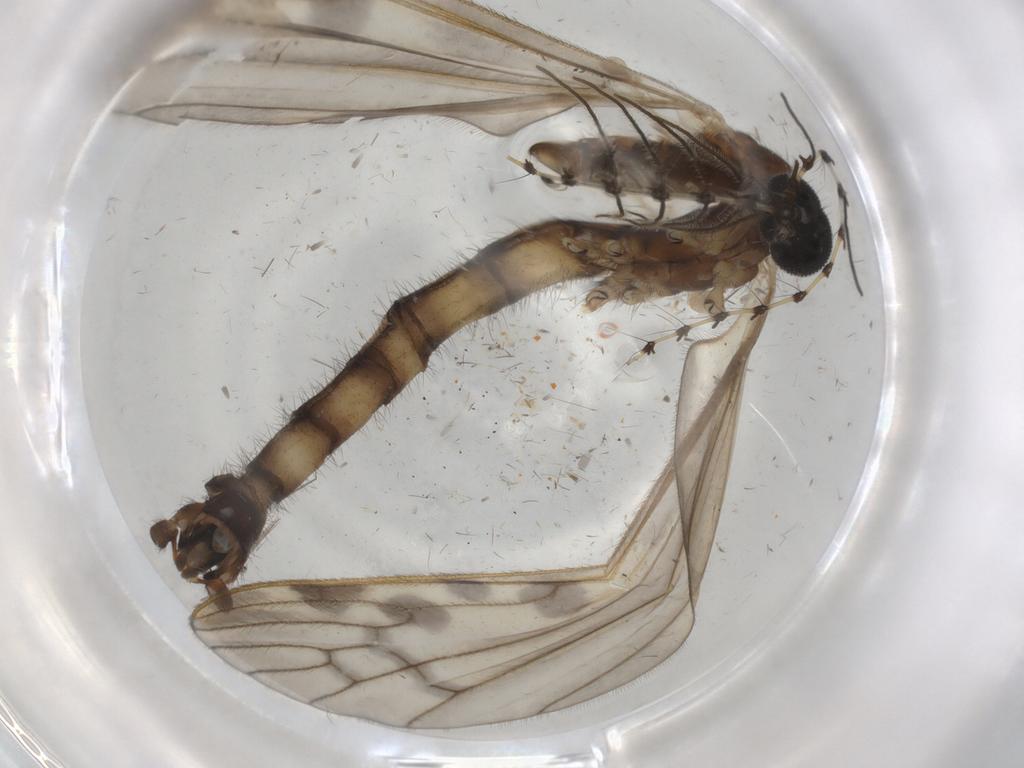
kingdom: Animalia
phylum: Arthropoda
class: Insecta
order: Diptera
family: Limoniidae
